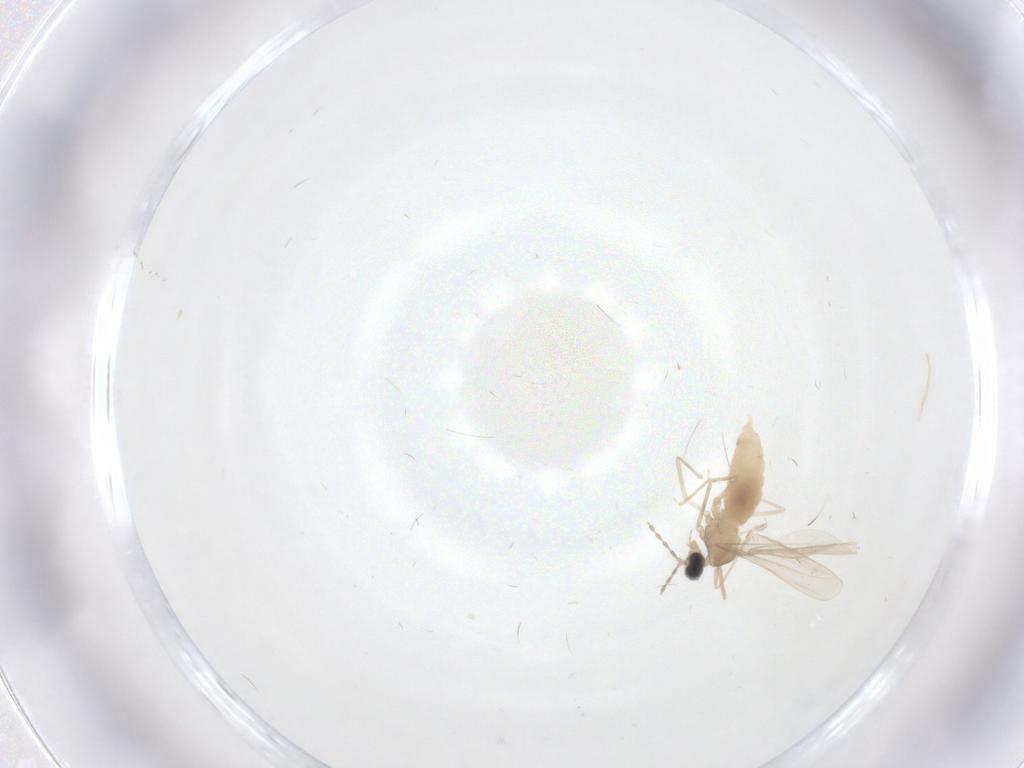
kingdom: Animalia
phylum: Arthropoda
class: Insecta
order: Diptera
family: Cecidomyiidae
